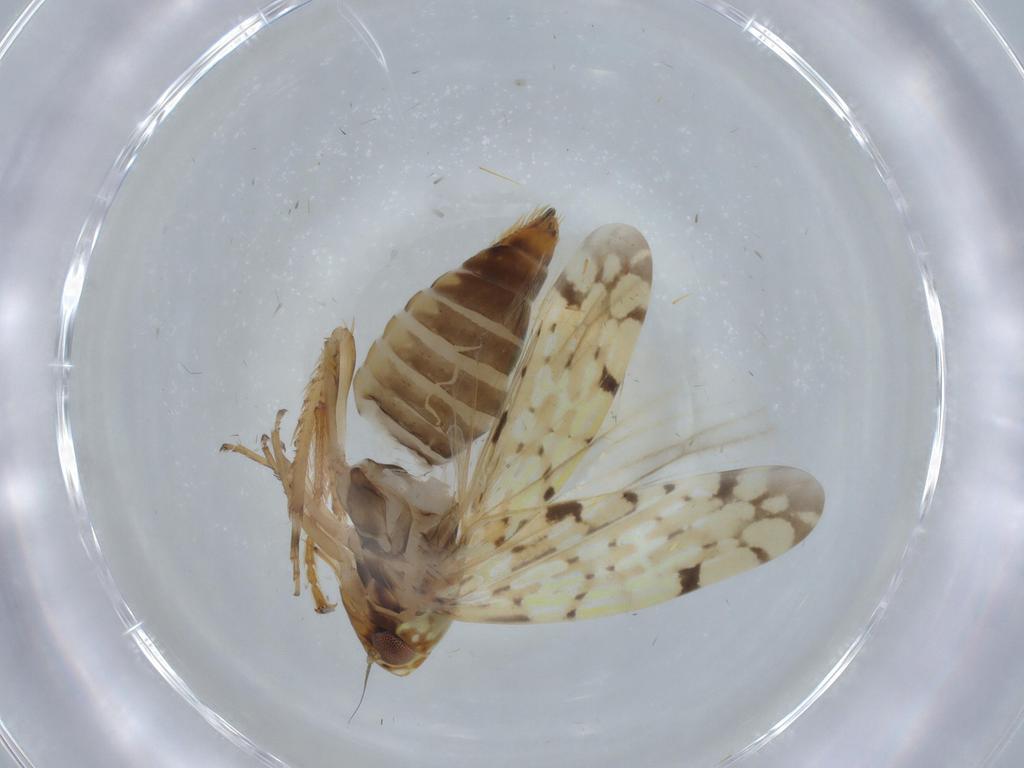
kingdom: Animalia
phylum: Arthropoda
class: Insecta
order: Hemiptera
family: Cicadellidae
